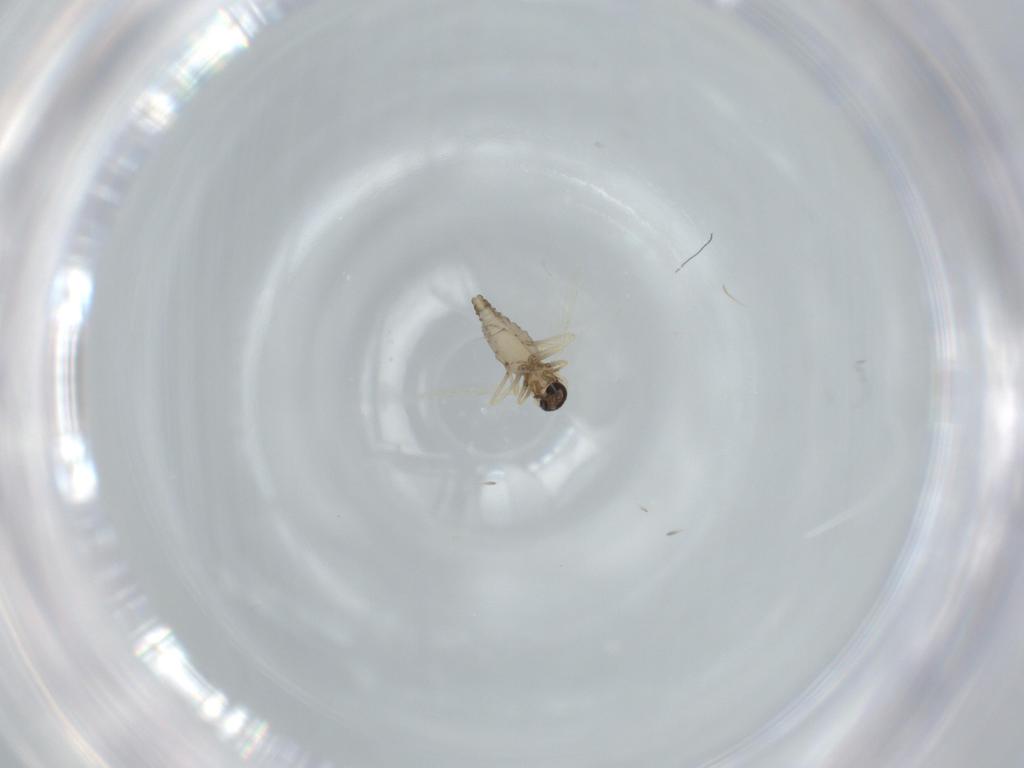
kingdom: Animalia
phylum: Arthropoda
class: Insecta
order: Diptera
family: Ceratopogonidae
